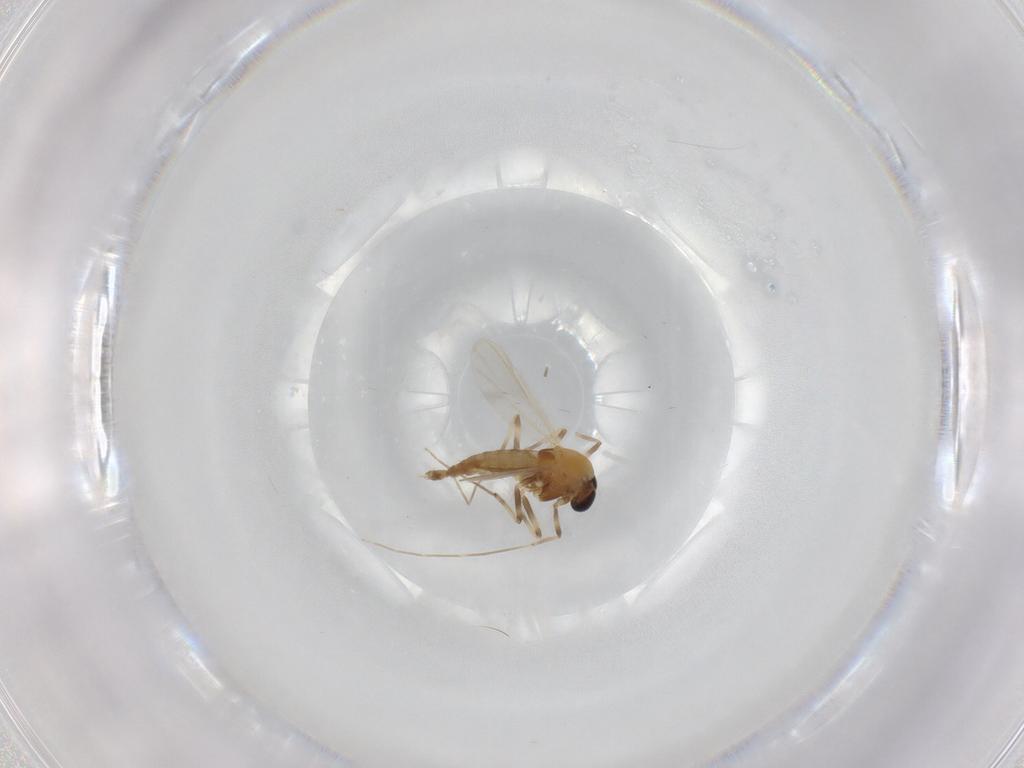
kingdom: Animalia
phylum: Arthropoda
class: Insecta
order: Diptera
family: Chironomidae
